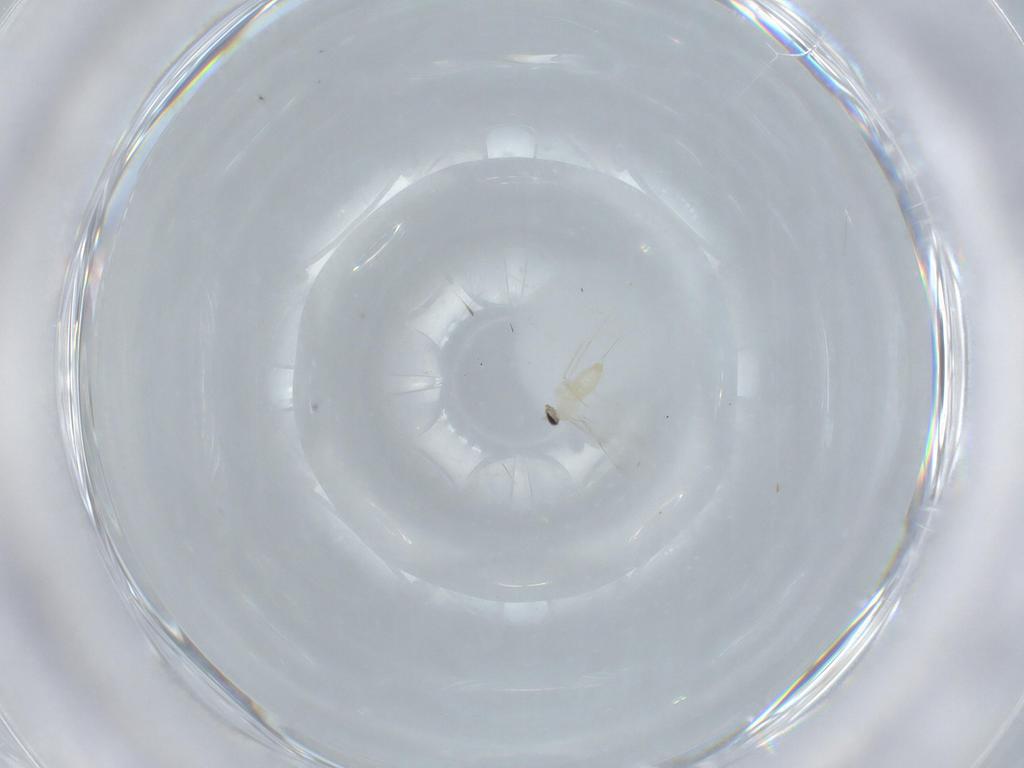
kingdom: Animalia
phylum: Arthropoda
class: Insecta
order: Diptera
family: Cecidomyiidae
